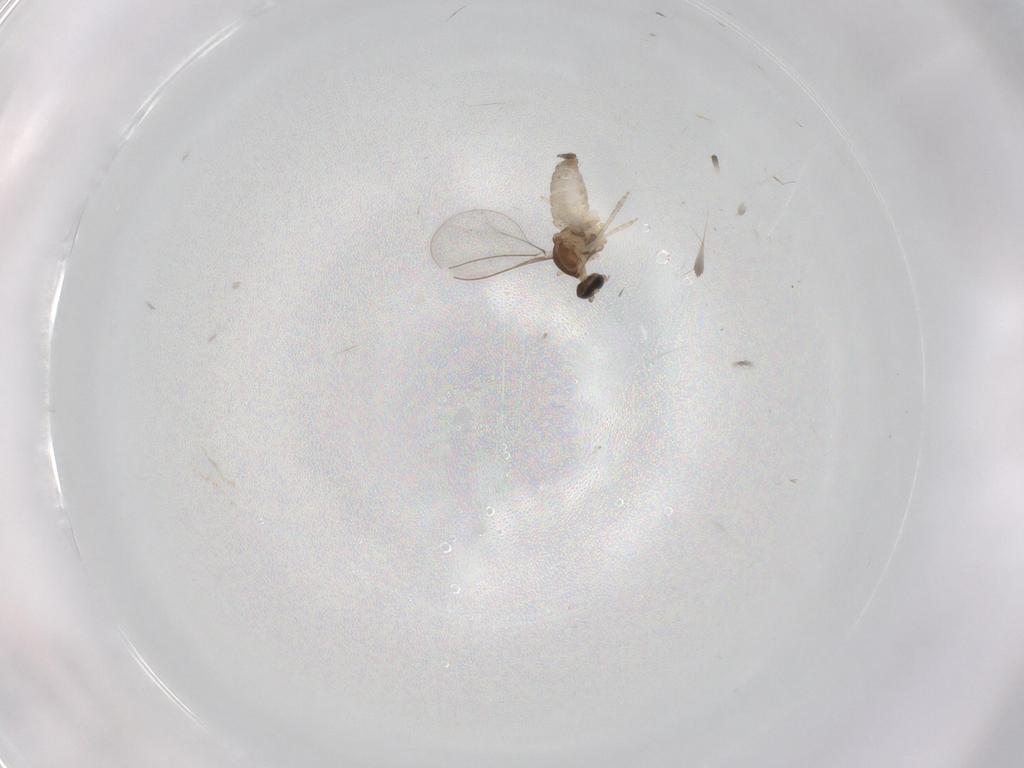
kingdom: Animalia
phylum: Arthropoda
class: Insecta
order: Diptera
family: Cecidomyiidae
